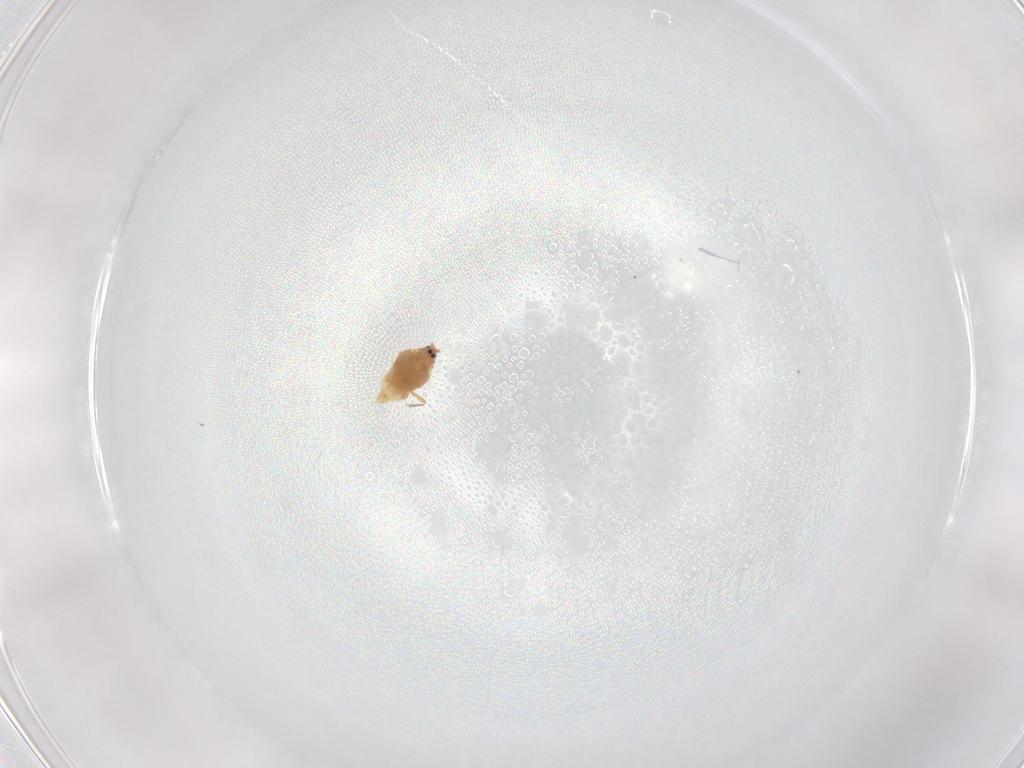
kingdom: Animalia
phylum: Arthropoda
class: Insecta
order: Hemiptera
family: Diaspididae
